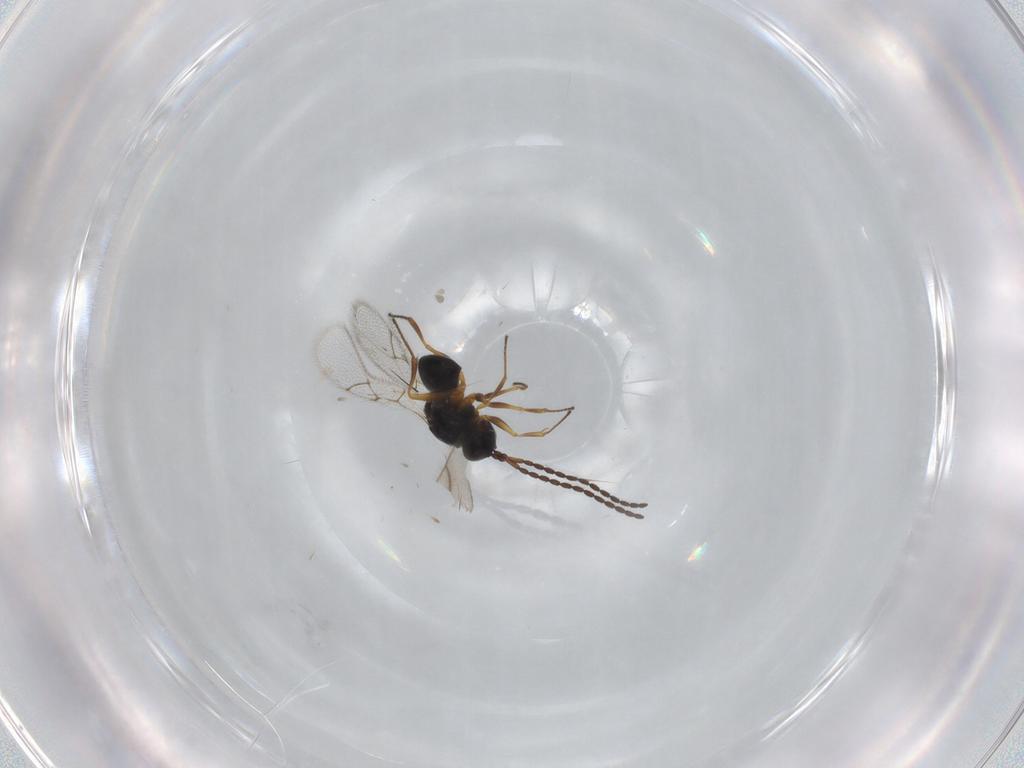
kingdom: Animalia
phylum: Arthropoda
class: Insecta
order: Hymenoptera
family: Figitidae
